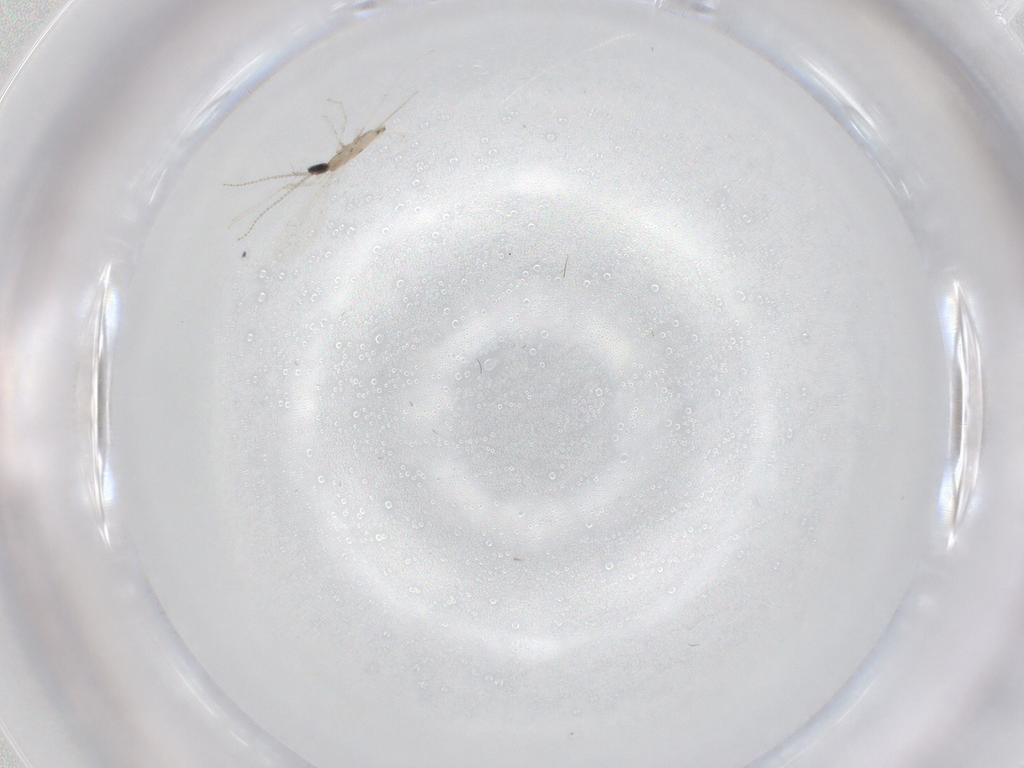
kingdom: Animalia
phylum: Arthropoda
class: Insecta
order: Diptera
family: Cecidomyiidae
